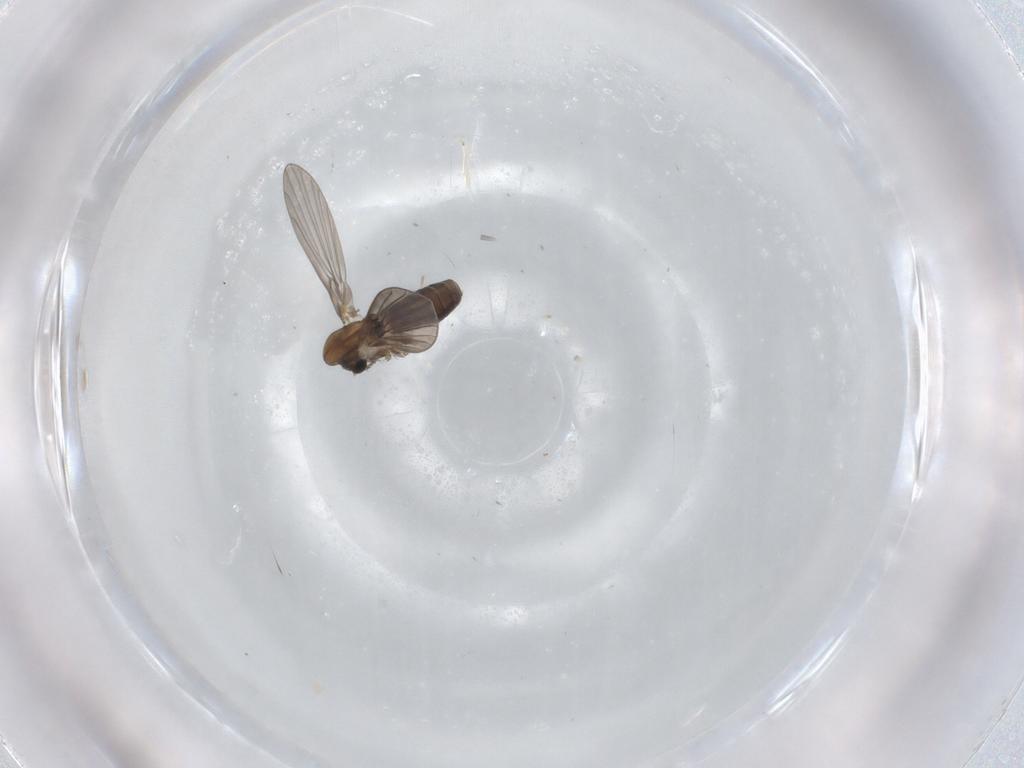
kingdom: Animalia
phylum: Arthropoda
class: Insecta
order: Diptera
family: Psychodidae
